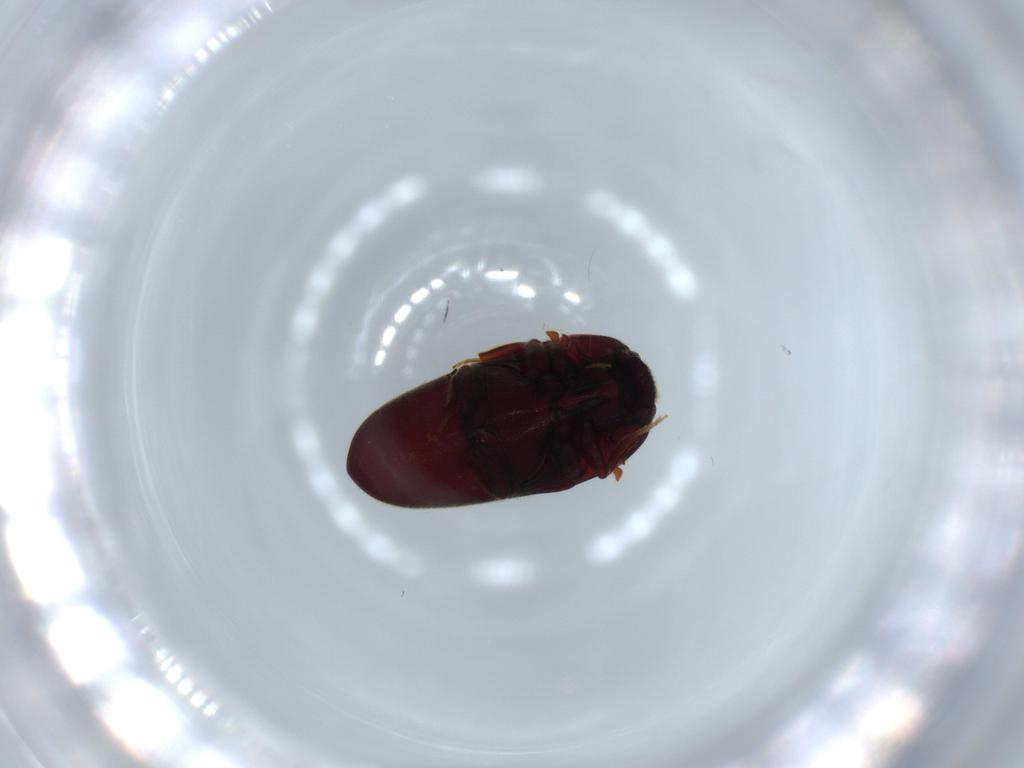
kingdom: Animalia
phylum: Arthropoda
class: Insecta
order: Coleoptera
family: Throscidae
